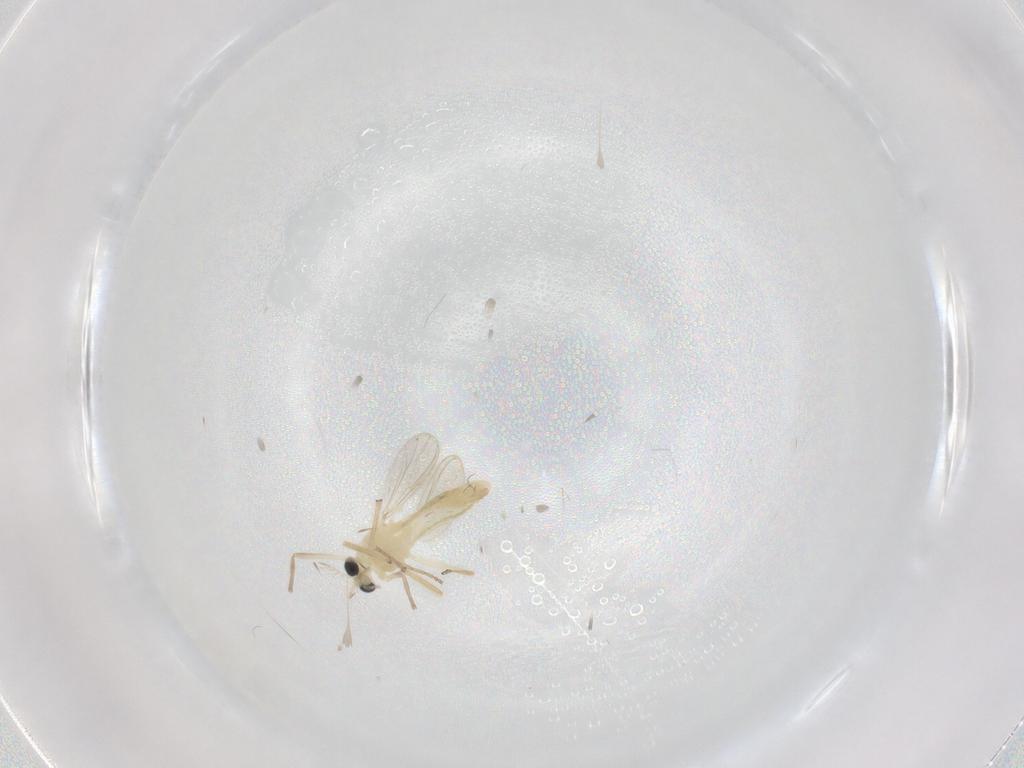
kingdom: Animalia
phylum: Arthropoda
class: Insecta
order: Diptera
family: Chironomidae
